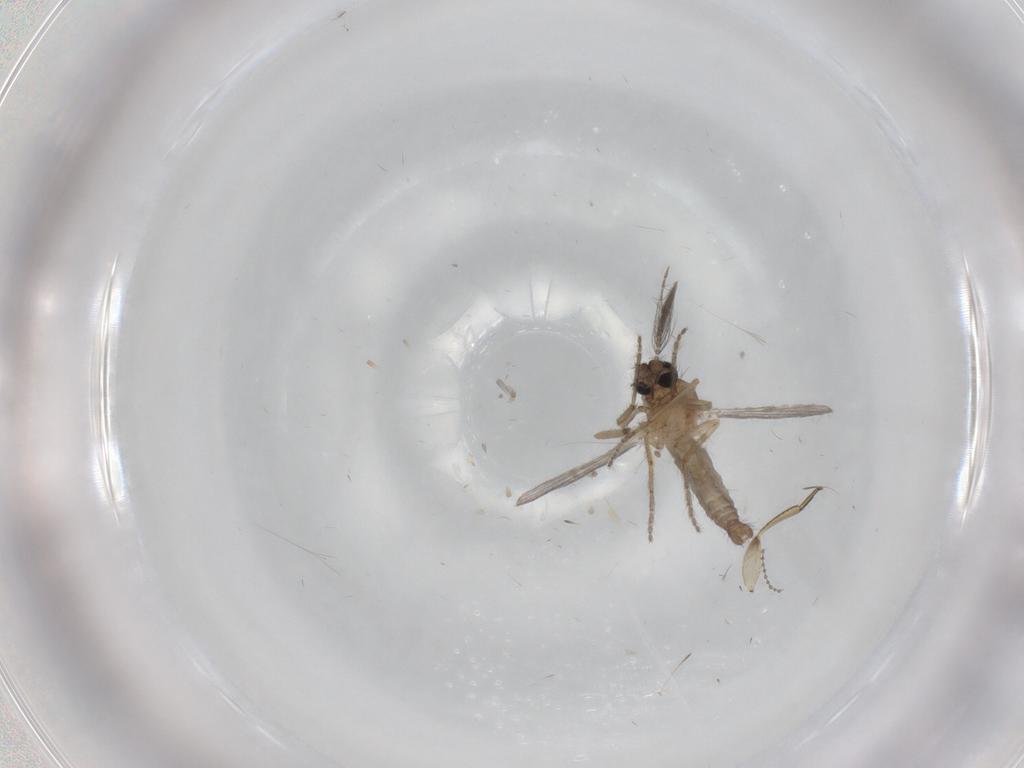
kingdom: Animalia
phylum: Arthropoda
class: Insecta
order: Diptera
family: Ceratopogonidae
